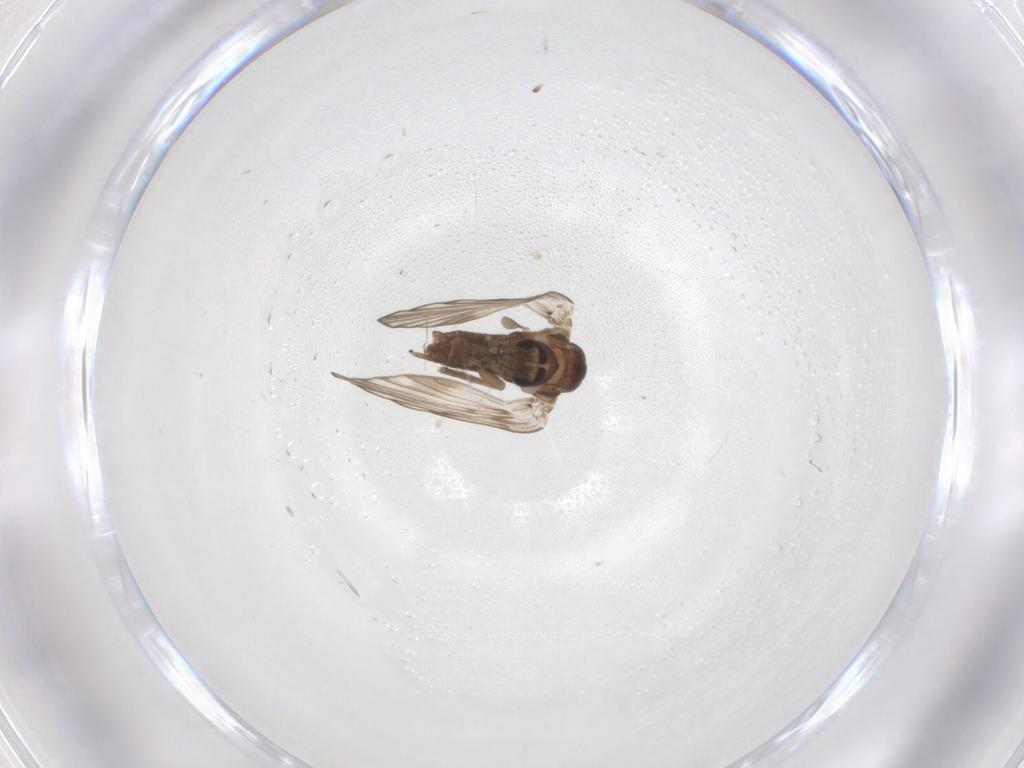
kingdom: Animalia
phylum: Arthropoda
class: Insecta
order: Diptera
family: Psychodidae
